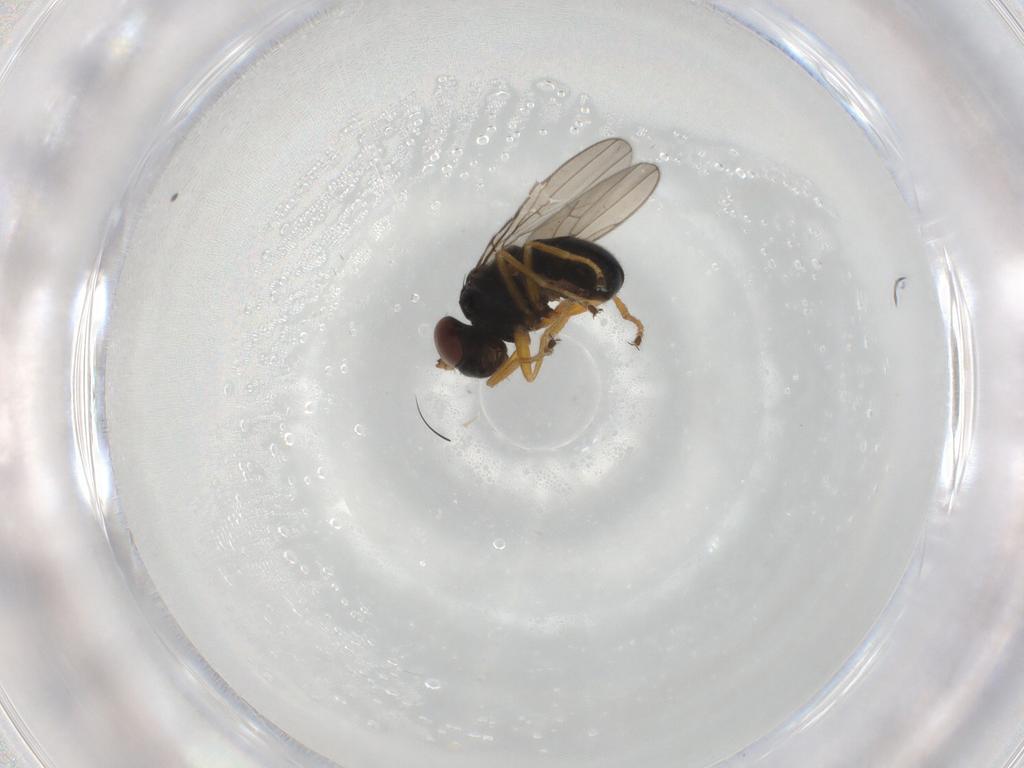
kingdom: Animalia
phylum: Arthropoda
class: Insecta
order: Diptera
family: Ephydridae
